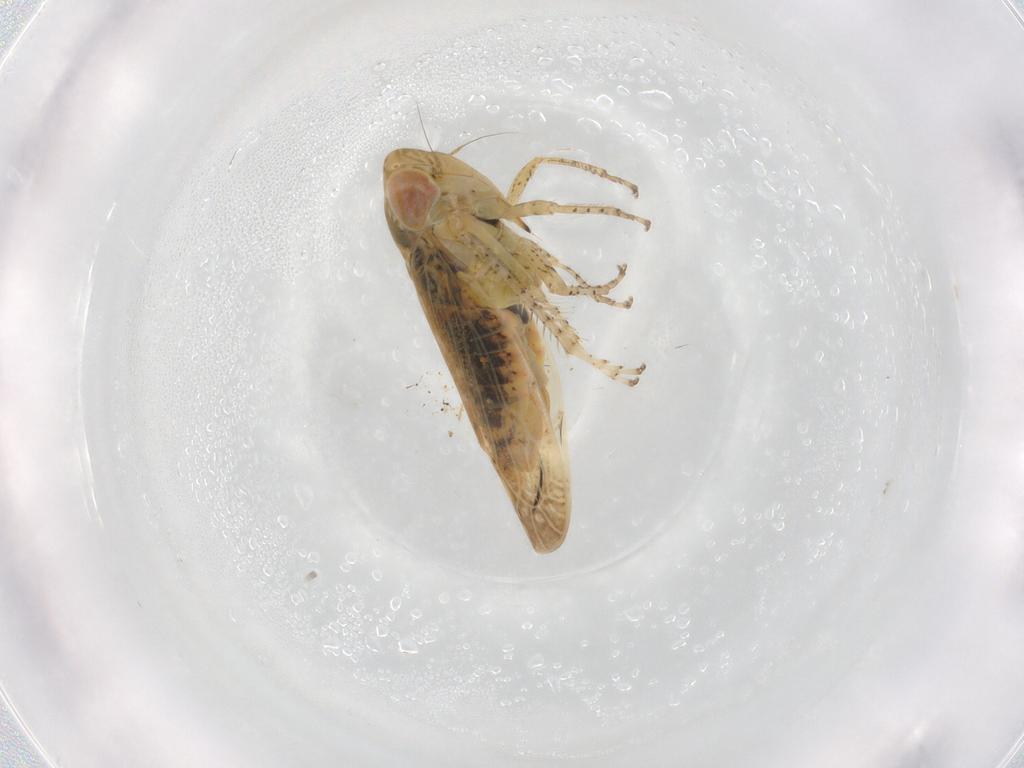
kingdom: Animalia
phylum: Arthropoda
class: Insecta
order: Hemiptera
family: Cicadellidae
